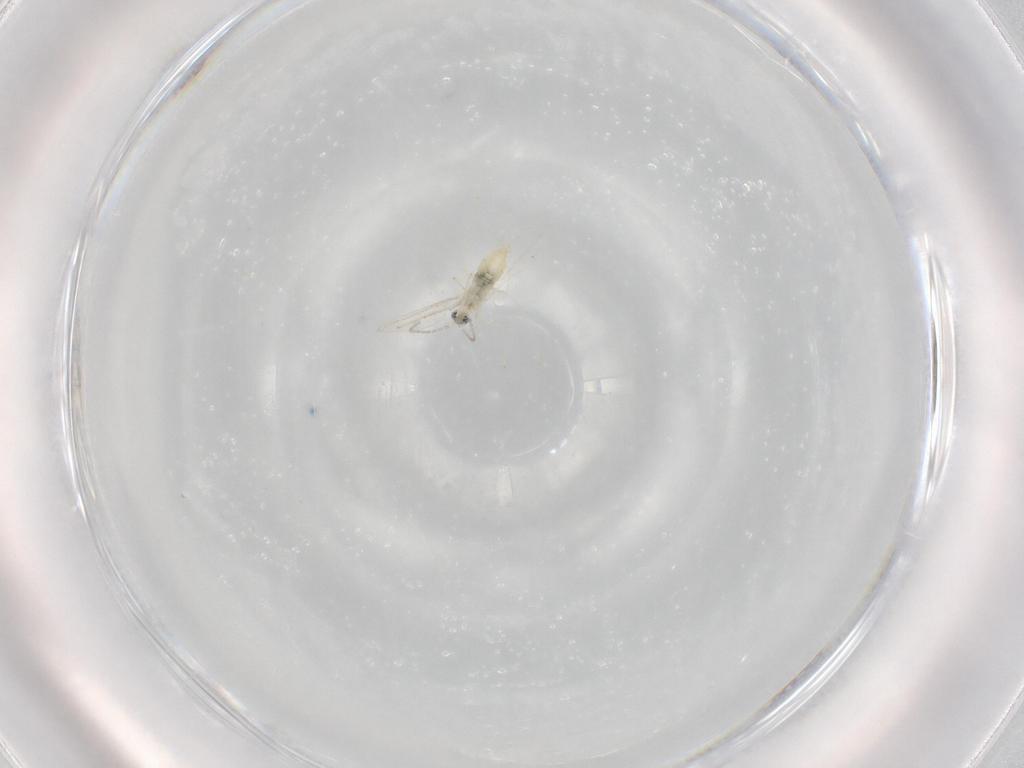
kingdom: Animalia
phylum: Arthropoda
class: Insecta
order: Diptera
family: Cecidomyiidae
